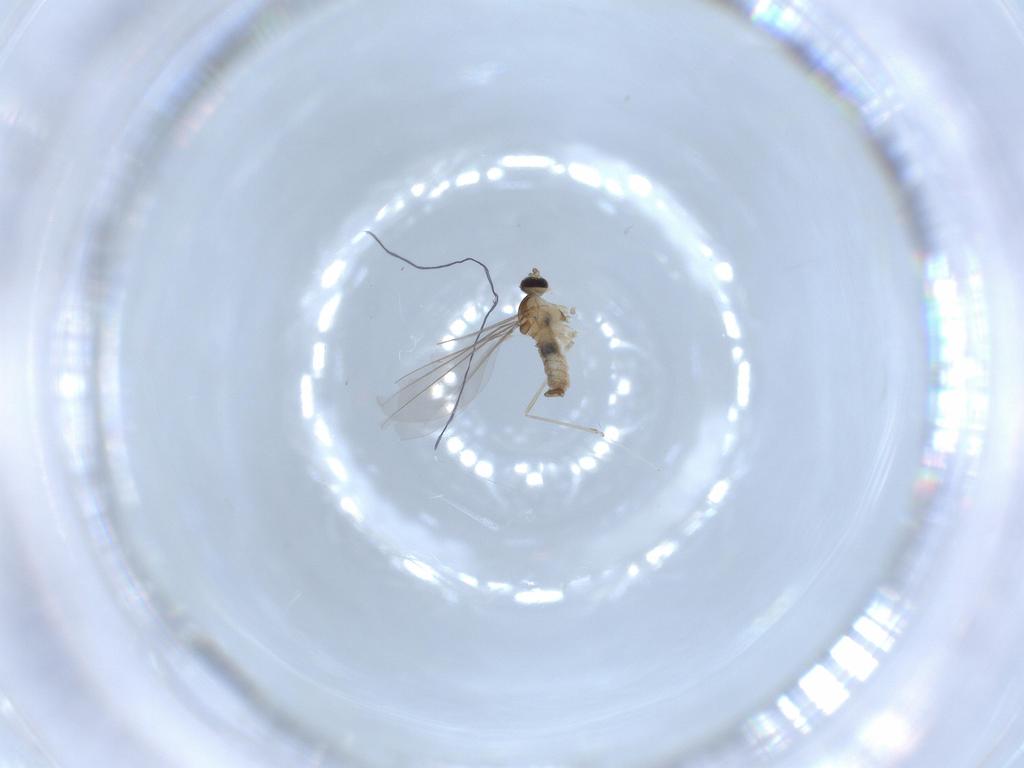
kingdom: Animalia
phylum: Arthropoda
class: Insecta
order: Diptera
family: Cecidomyiidae
